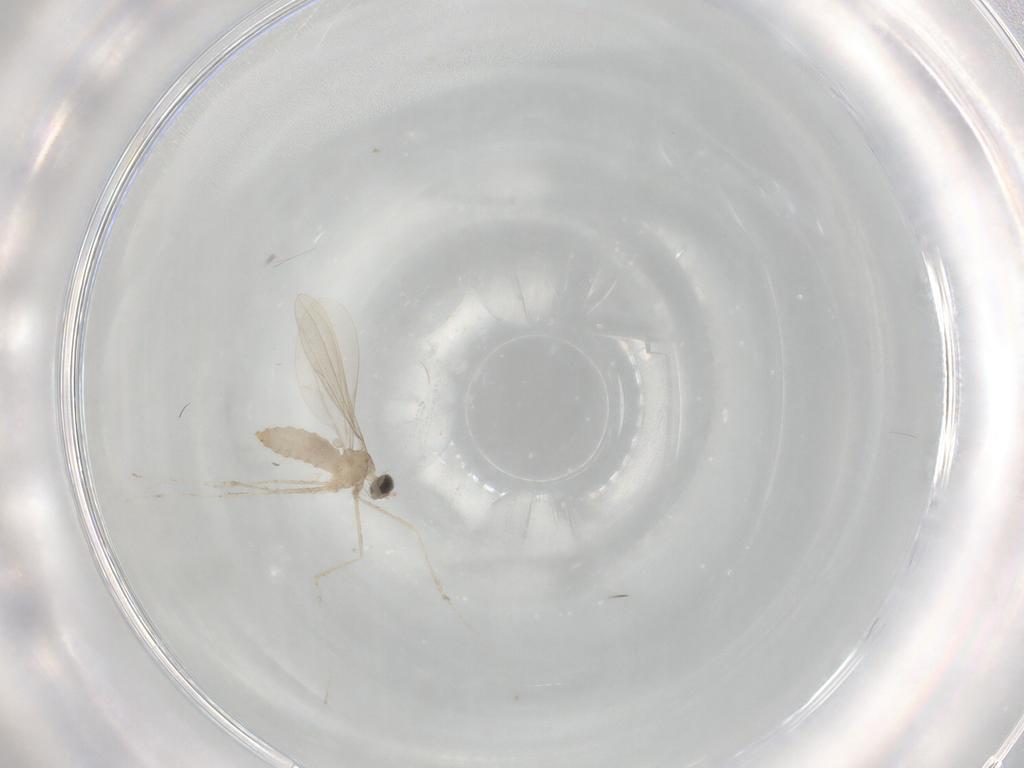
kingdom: Animalia
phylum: Arthropoda
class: Insecta
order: Diptera
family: Cecidomyiidae
